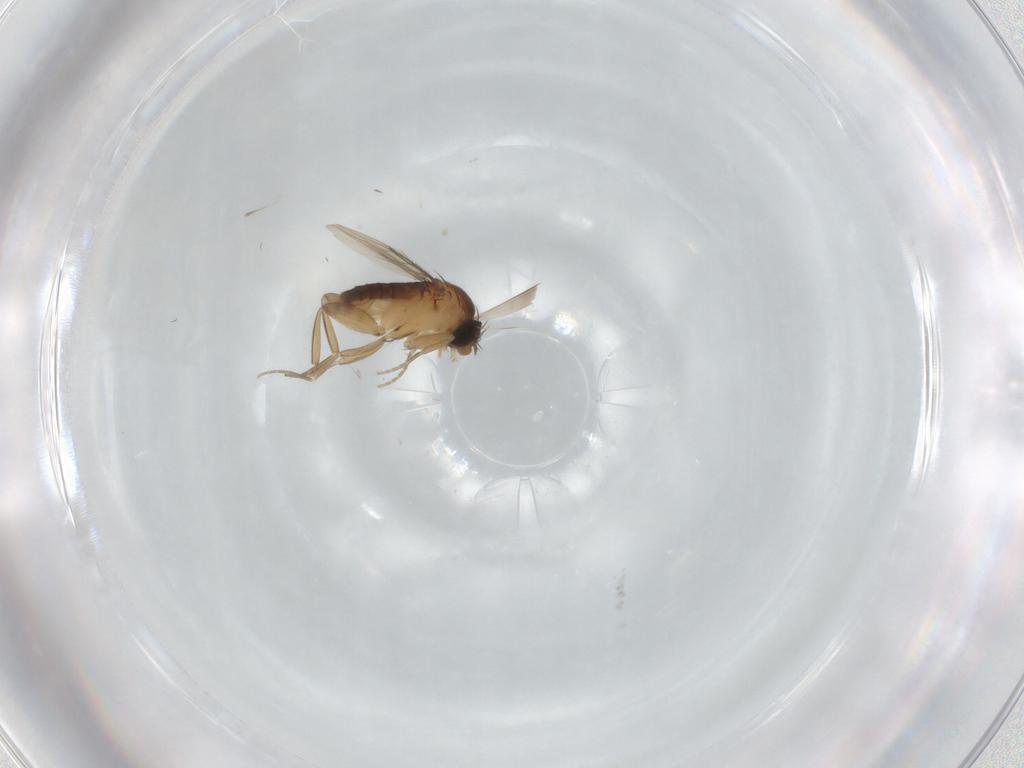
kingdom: Animalia
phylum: Arthropoda
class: Insecta
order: Diptera
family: Phoridae
